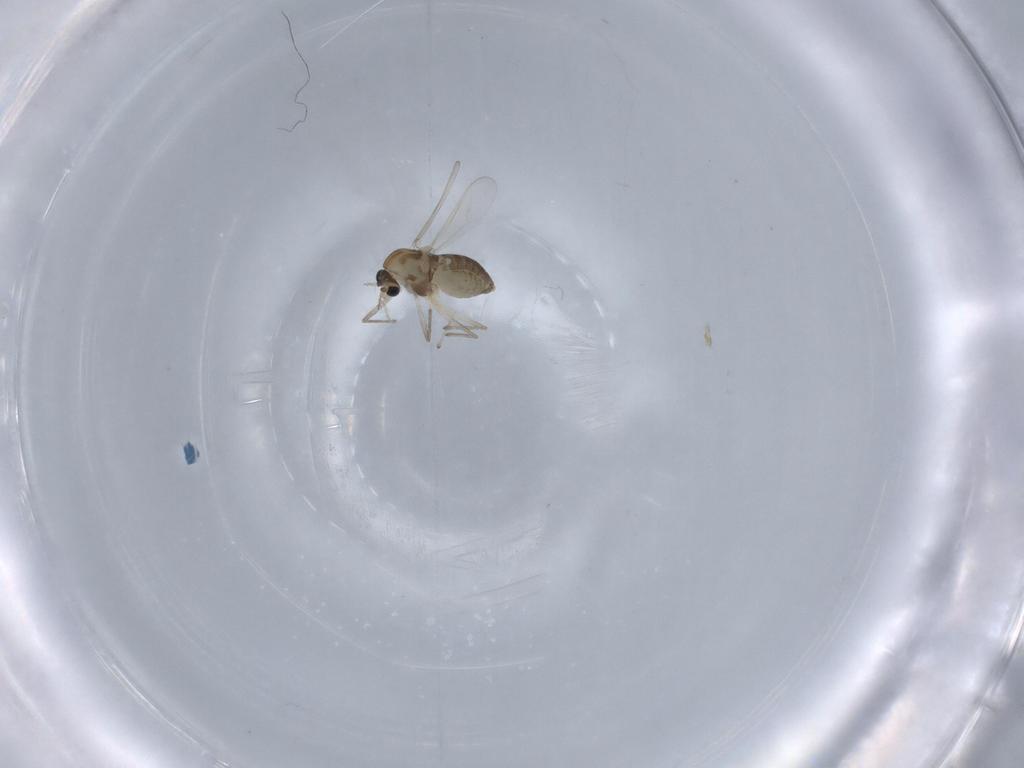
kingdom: Animalia
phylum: Arthropoda
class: Insecta
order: Diptera
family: Chironomidae
